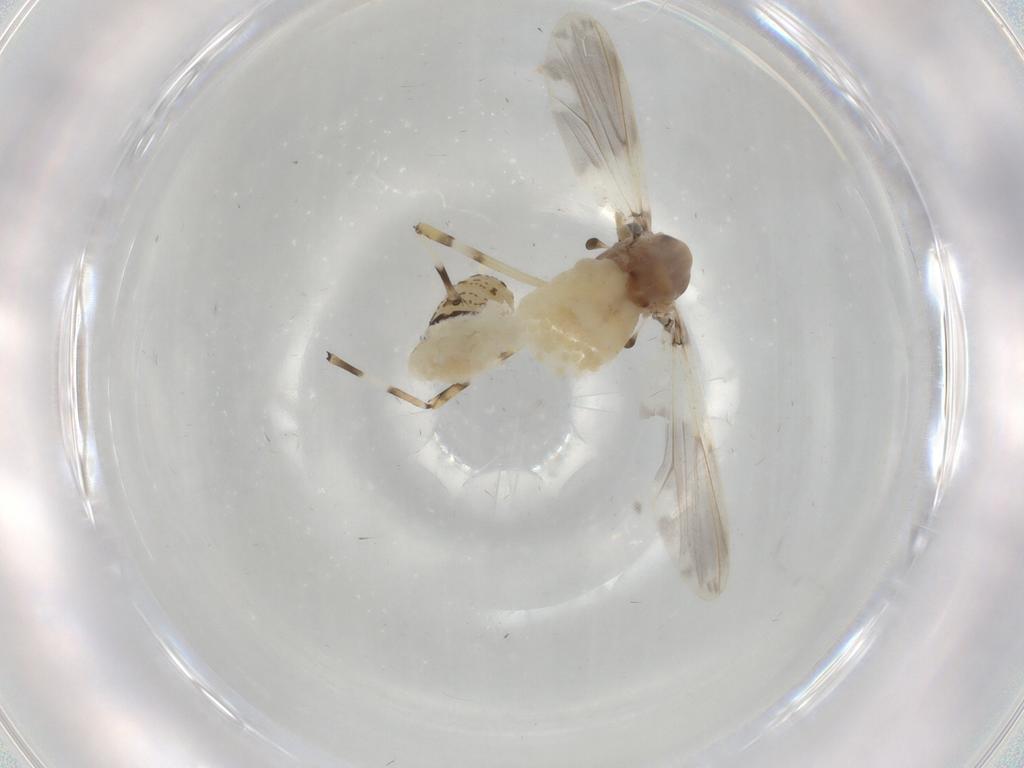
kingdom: Animalia
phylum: Arthropoda
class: Insecta
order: Diptera
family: Chironomidae
